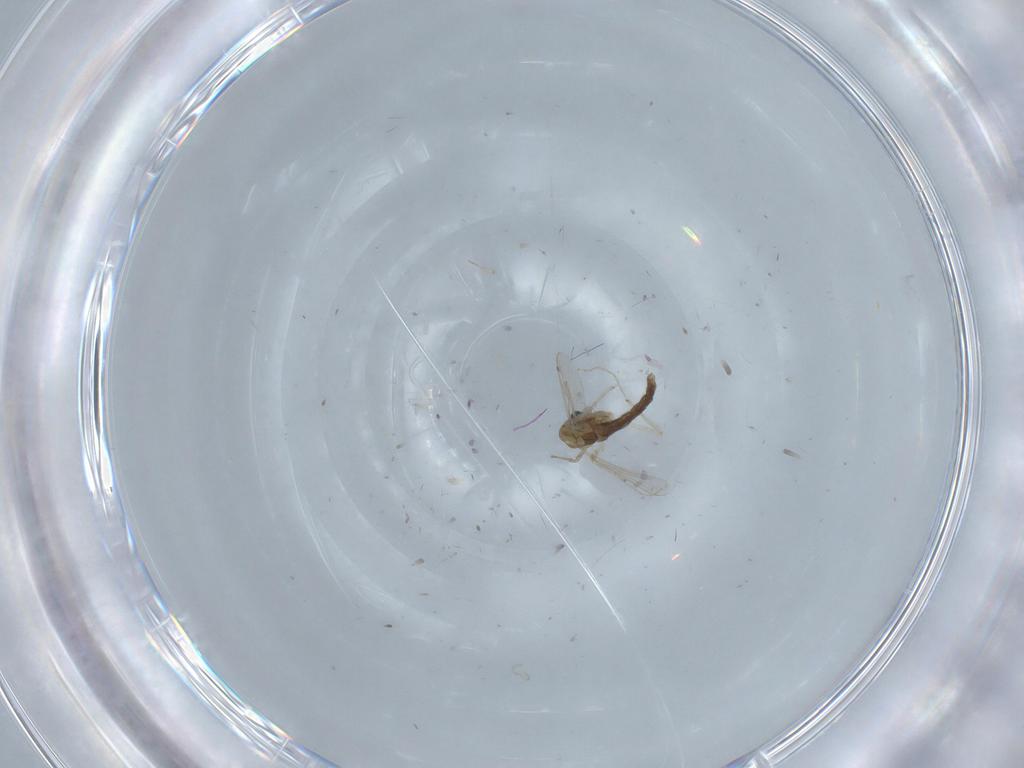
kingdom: Animalia
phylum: Arthropoda
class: Insecta
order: Diptera
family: Chironomidae
